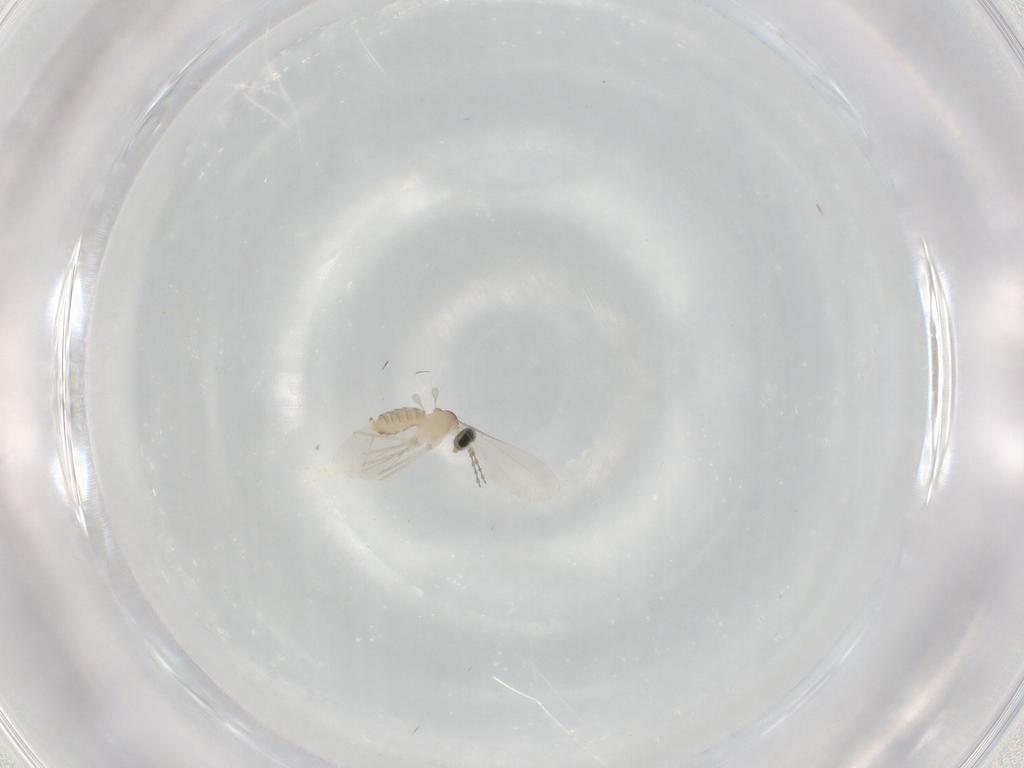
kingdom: Animalia
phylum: Arthropoda
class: Insecta
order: Diptera
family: Cecidomyiidae
